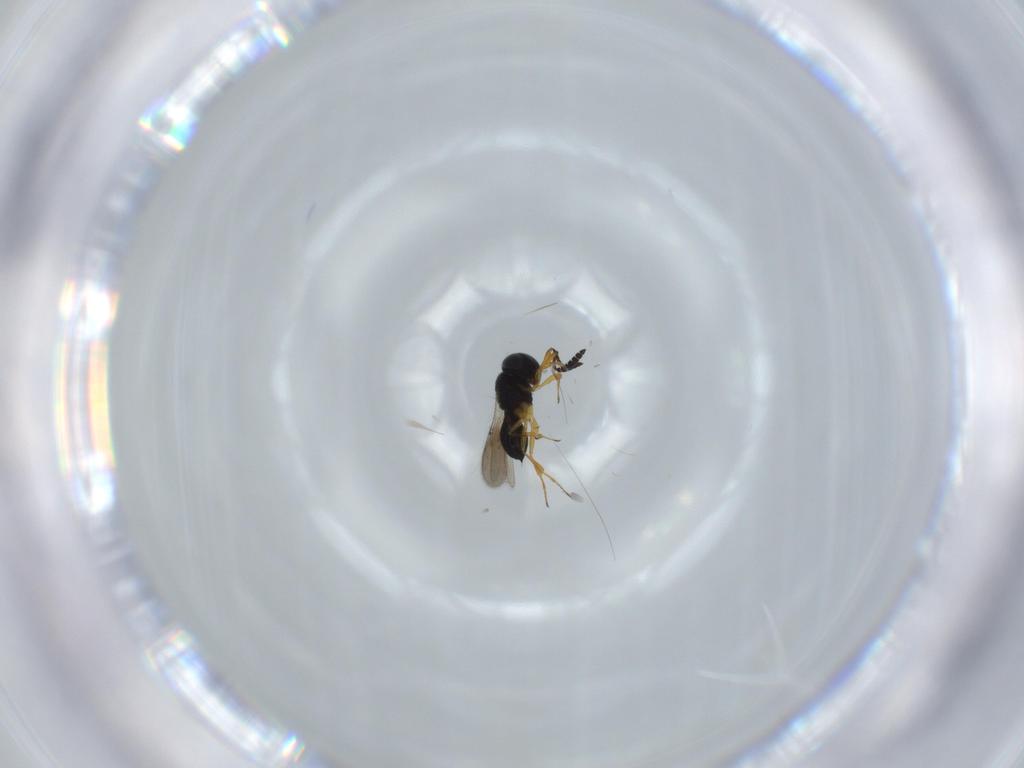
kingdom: Animalia
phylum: Arthropoda
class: Insecta
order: Hymenoptera
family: Scelionidae
